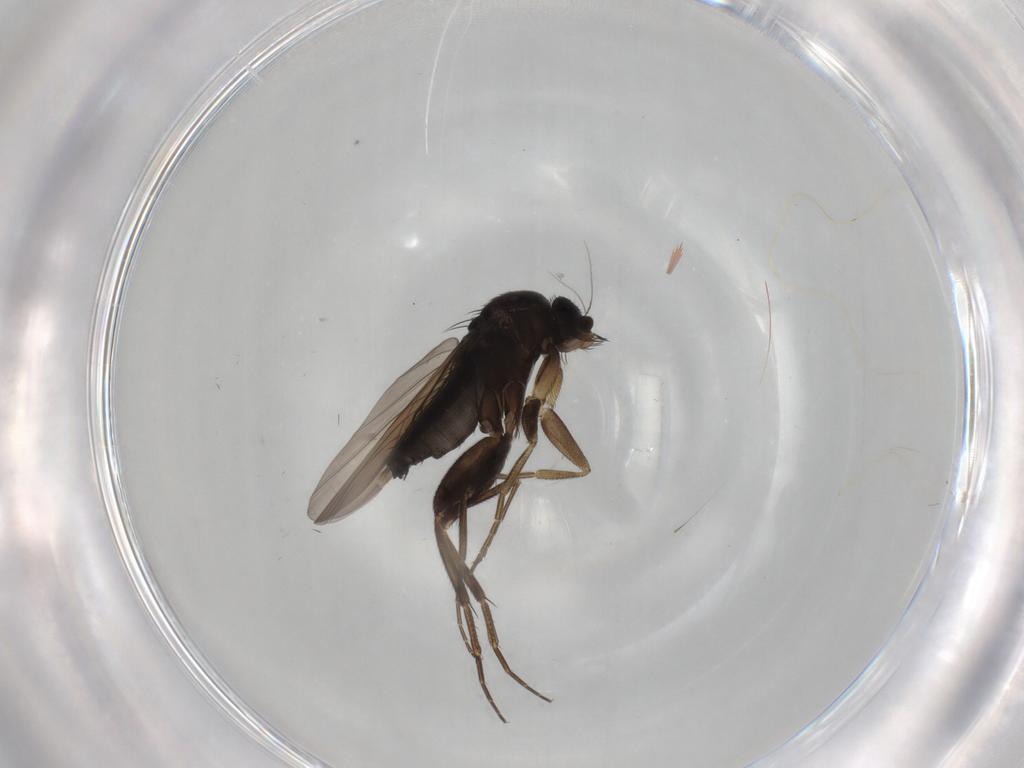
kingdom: Animalia
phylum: Arthropoda
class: Insecta
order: Diptera
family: Phoridae
